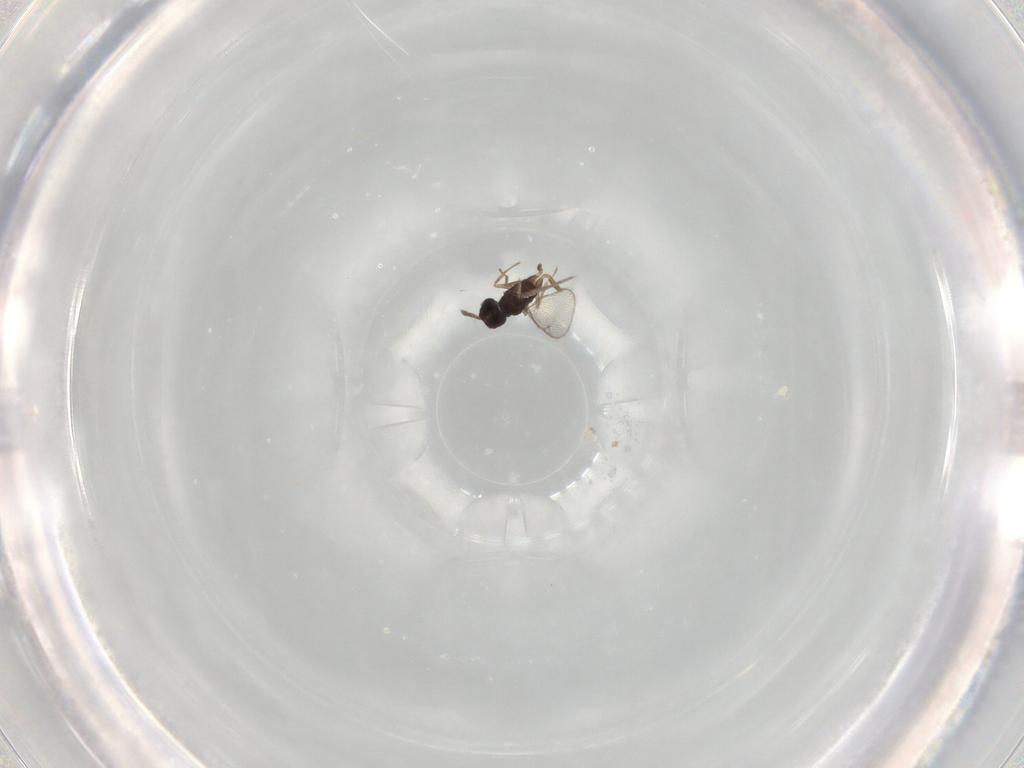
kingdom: Animalia
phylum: Arthropoda
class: Insecta
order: Hymenoptera
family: Eulophidae
